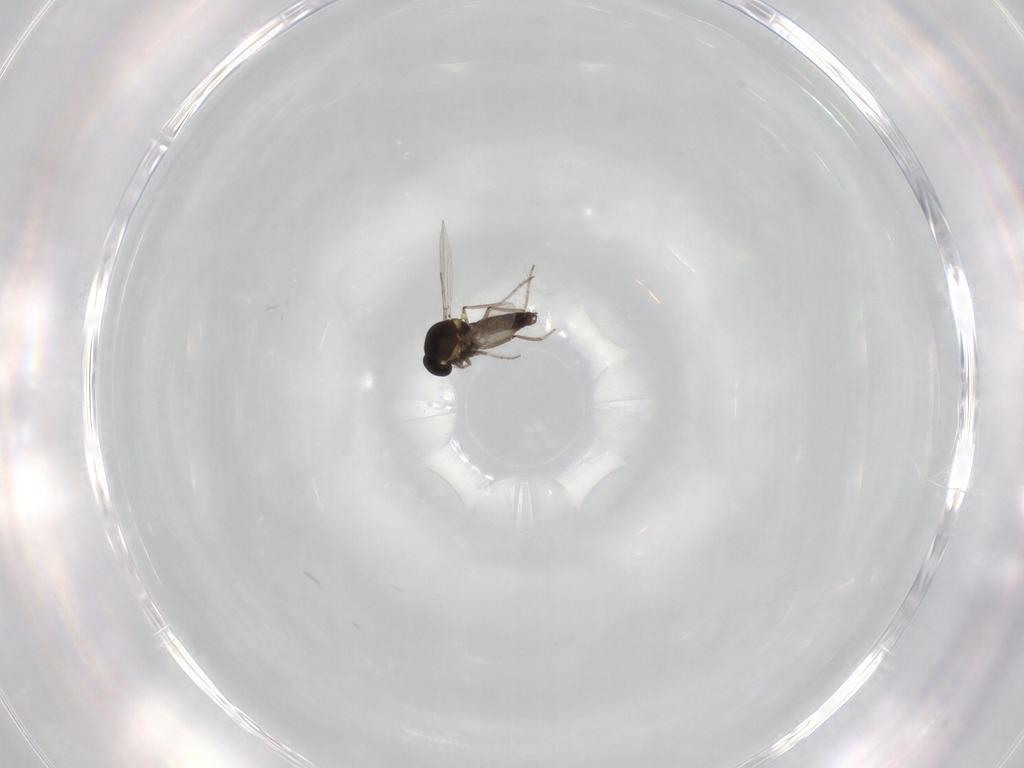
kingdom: Animalia
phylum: Arthropoda
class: Insecta
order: Diptera
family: Ceratopogonidae
